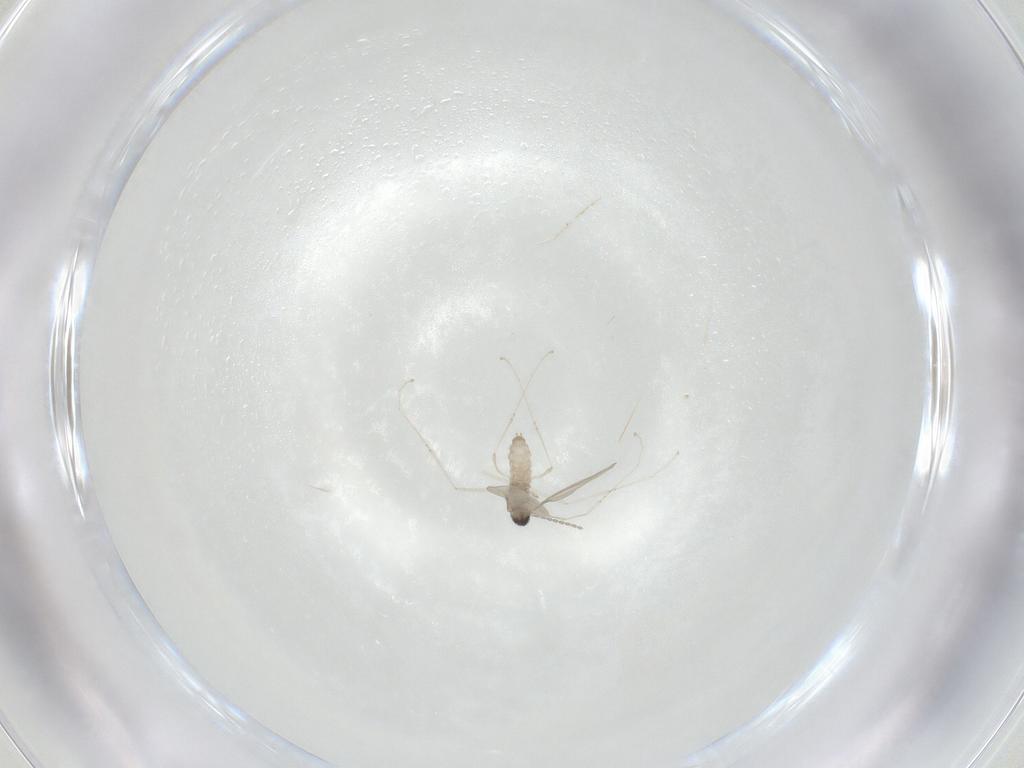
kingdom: Animalia
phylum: Arthropoda
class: Insecta
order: Diptera
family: Cecidomyiidae
